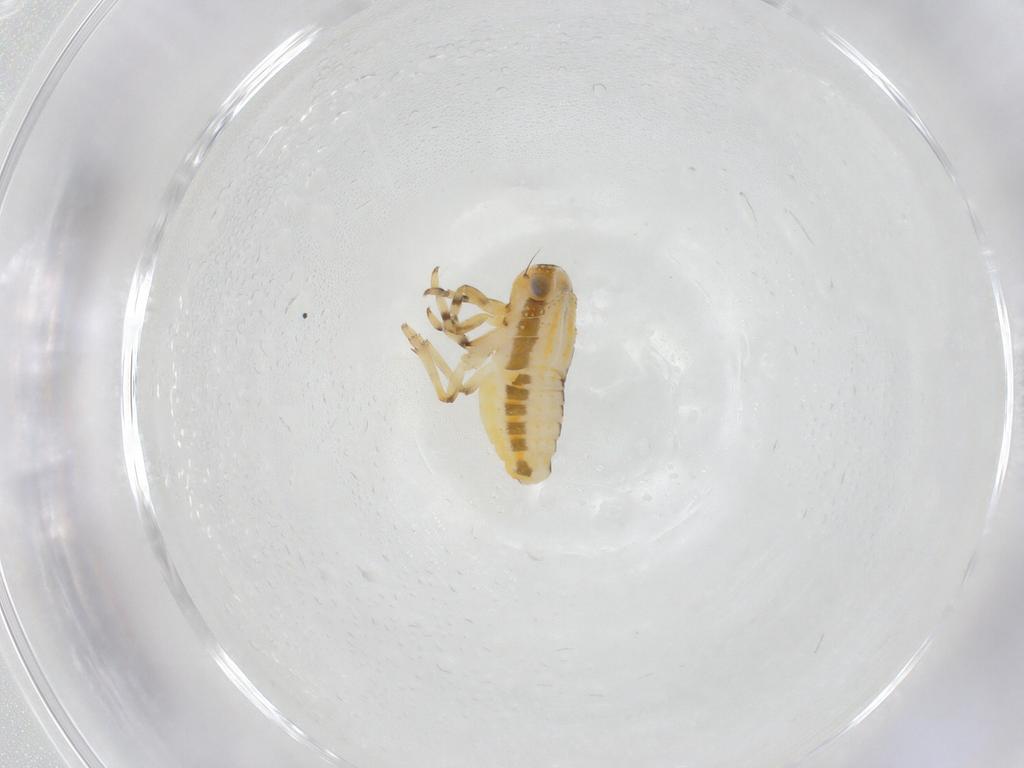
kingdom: Animalia
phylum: Arthropoda
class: Insecta
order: Hemiptera
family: Issidae
